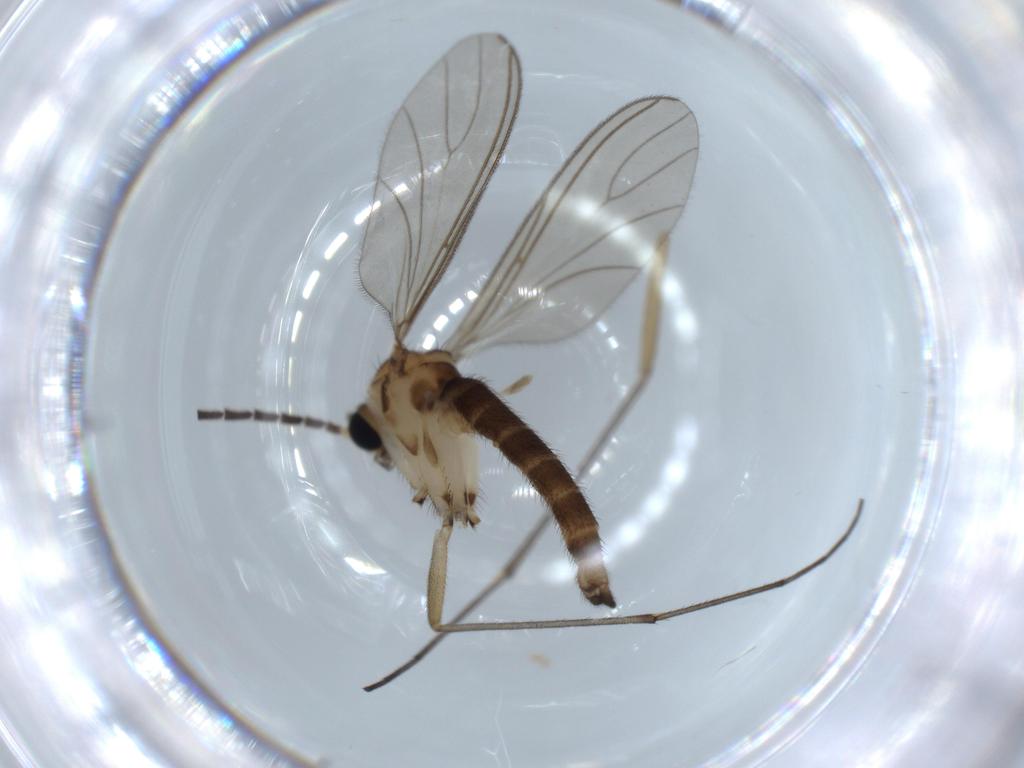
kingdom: Animalia
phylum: Arthropoda
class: Insecta
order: Diptera
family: Sciaridae
